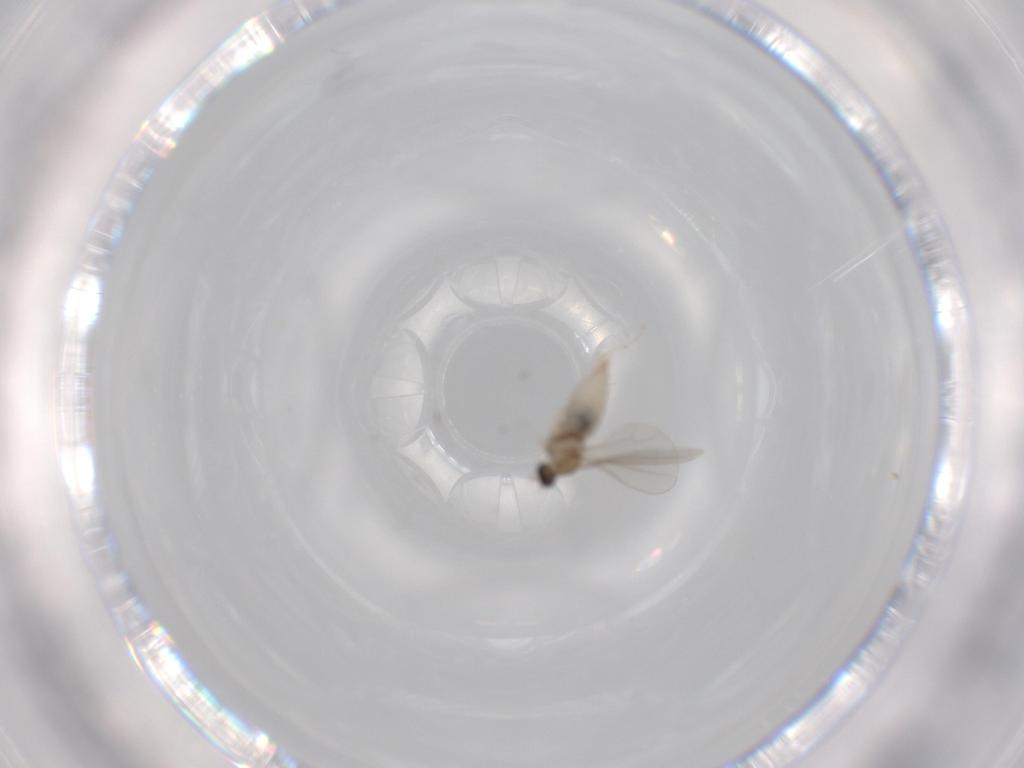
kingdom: Animalia
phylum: Arthropoda
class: Insecta
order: Diptera
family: Cecidomyiidae
